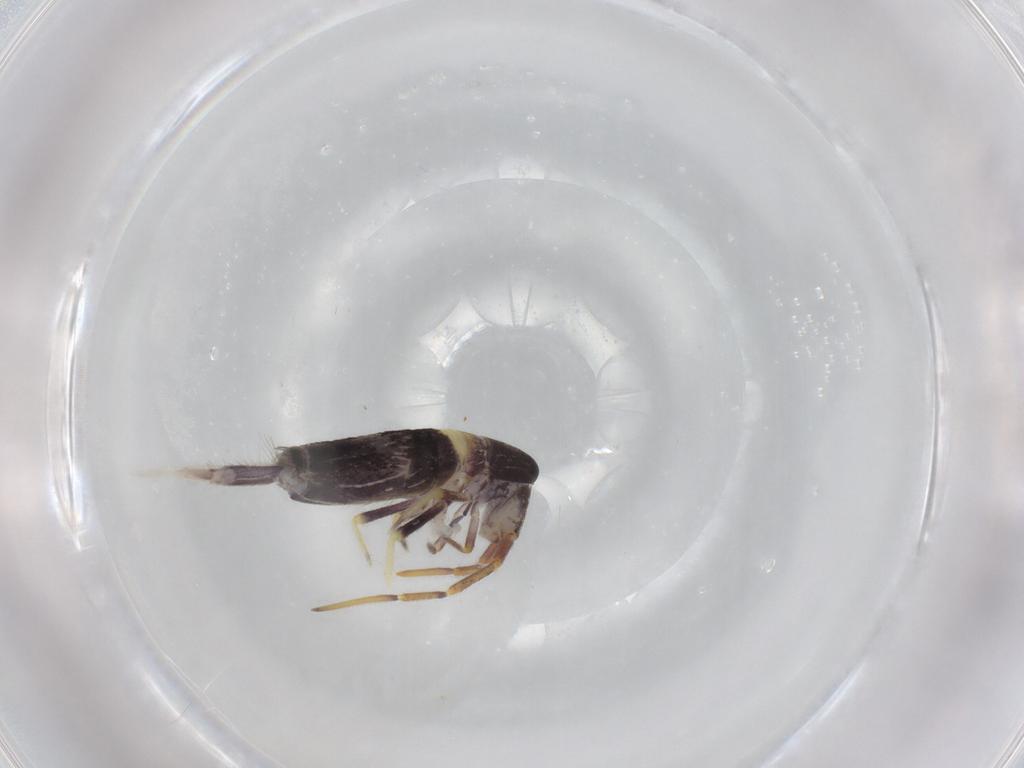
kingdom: Animalia
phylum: Arthropoda
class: Collembola
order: Entomobryomorpha
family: Entomobryidae
